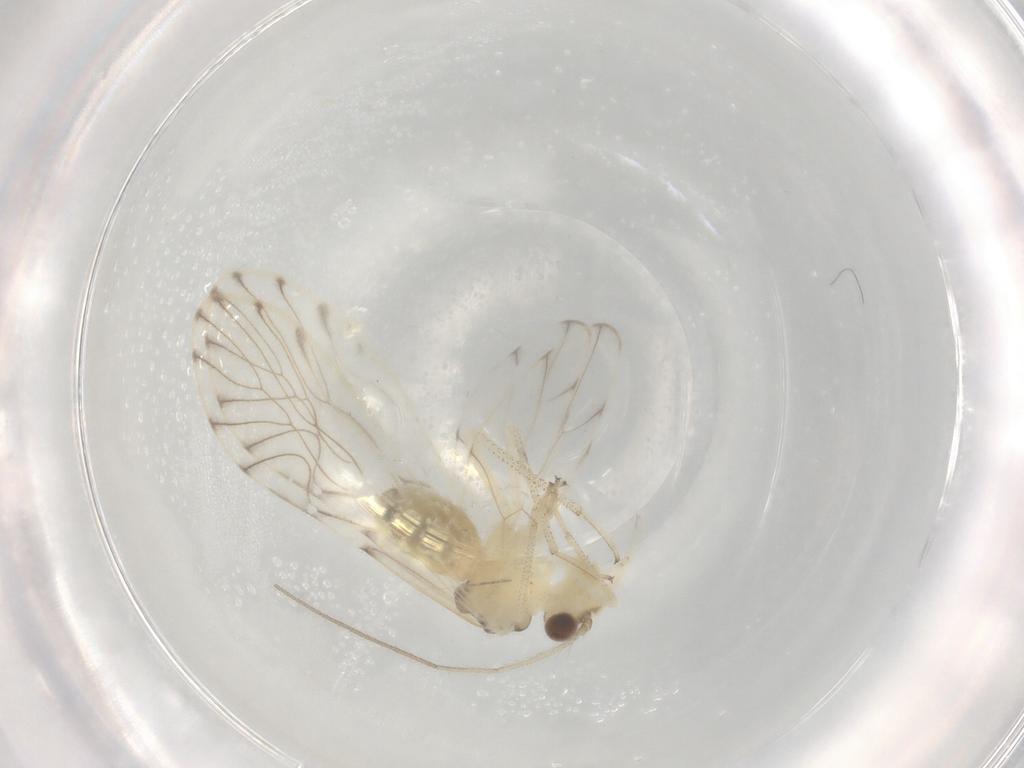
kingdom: Animalia
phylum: Arthropoda
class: Insecta
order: Psocodea
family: Philotarsidae
